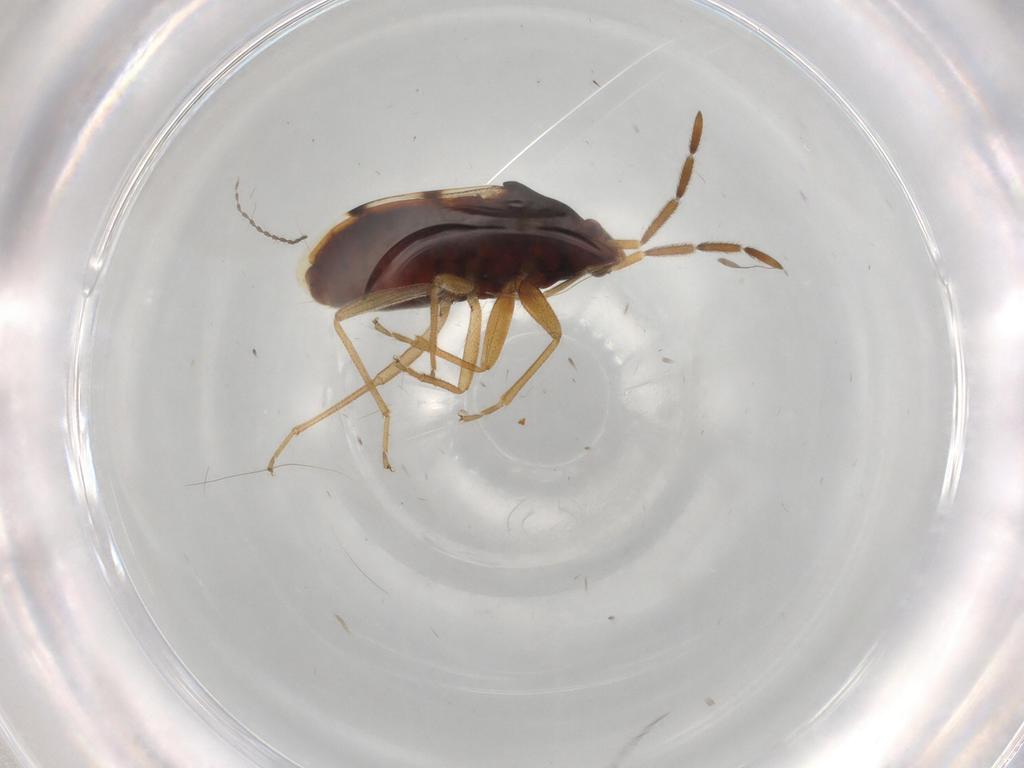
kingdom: Animalia
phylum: Arthropoda
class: Insecta
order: Hemiptera
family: Rhyparochromidae
